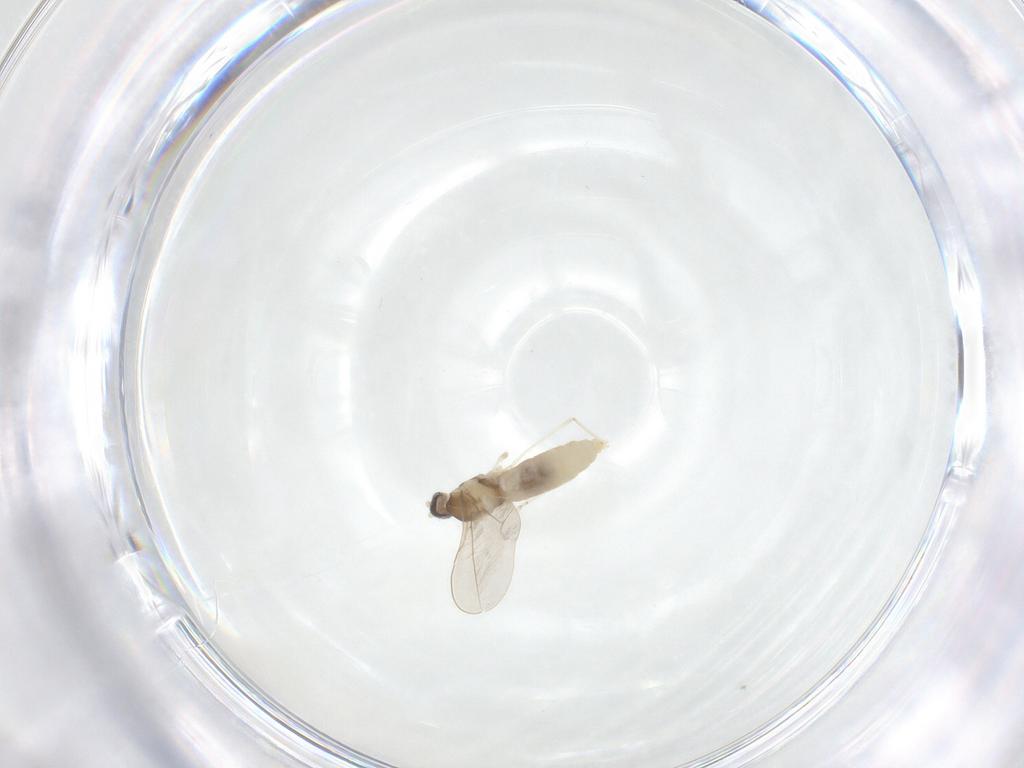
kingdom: Animalia
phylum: Arthropoda
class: Insecta
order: Diptera
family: Cecidomyiidae
